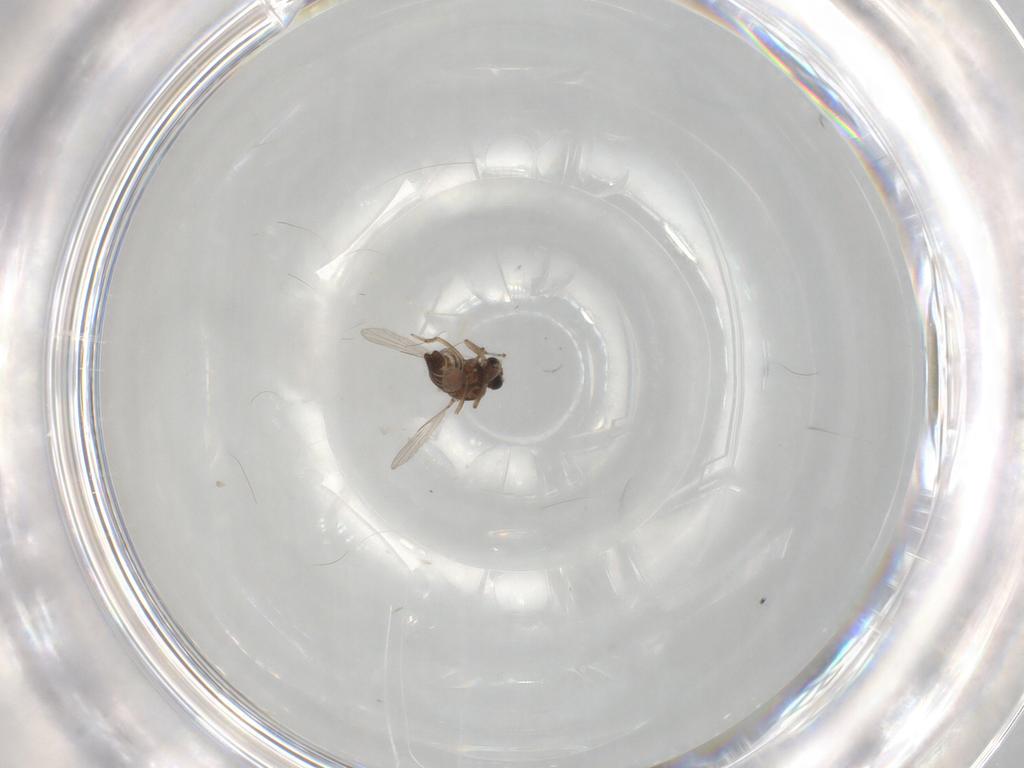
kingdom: Animalia
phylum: Arthropoda
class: Insecta
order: Diptera
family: Ceratopogonidae
